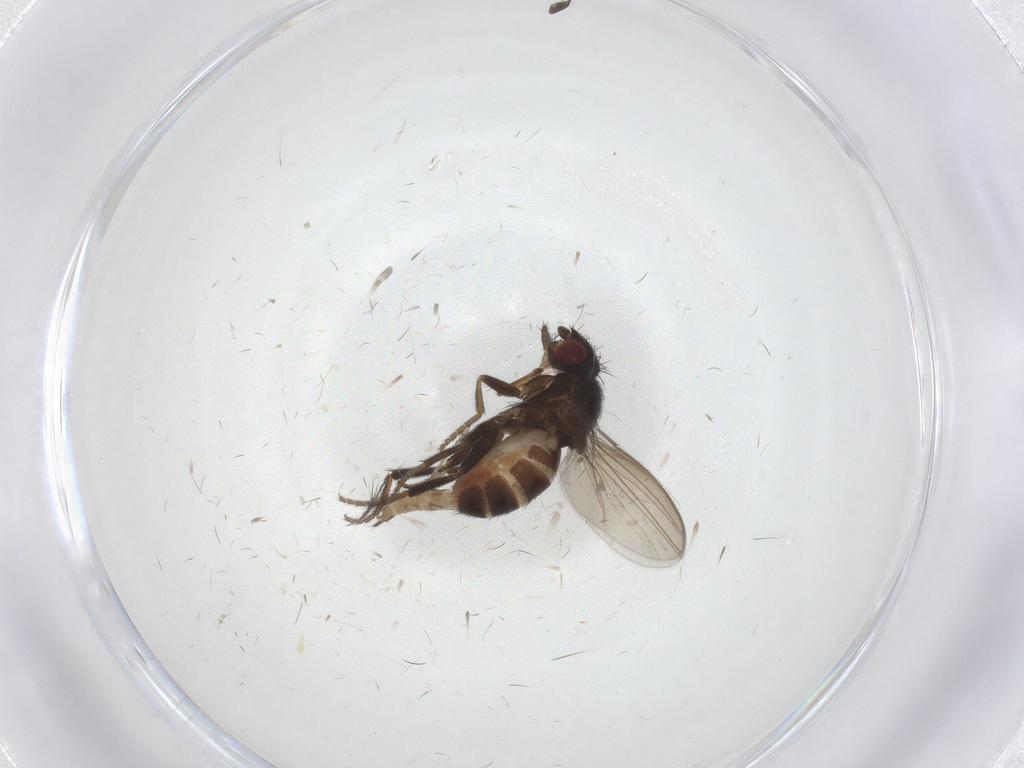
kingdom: Animalia
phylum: Arthropoda
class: Insecta
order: Diptera
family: Milichiidae
